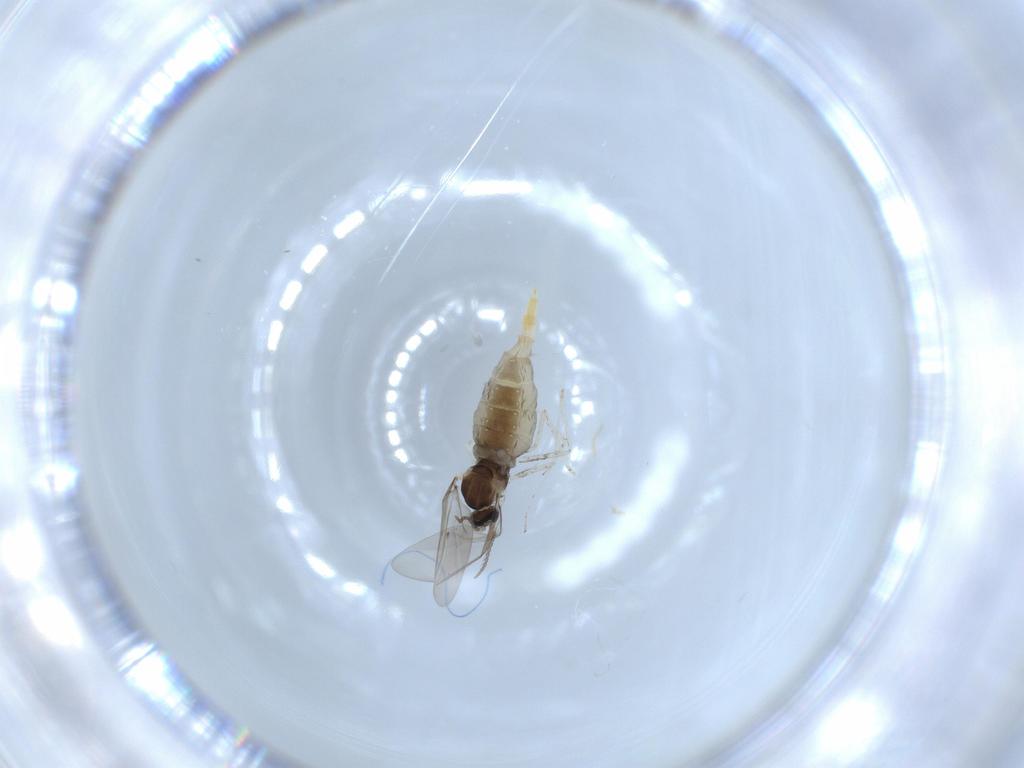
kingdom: Animalia
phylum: Arthropoda
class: Insecta
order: Diptera
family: Cecidomyiidae
